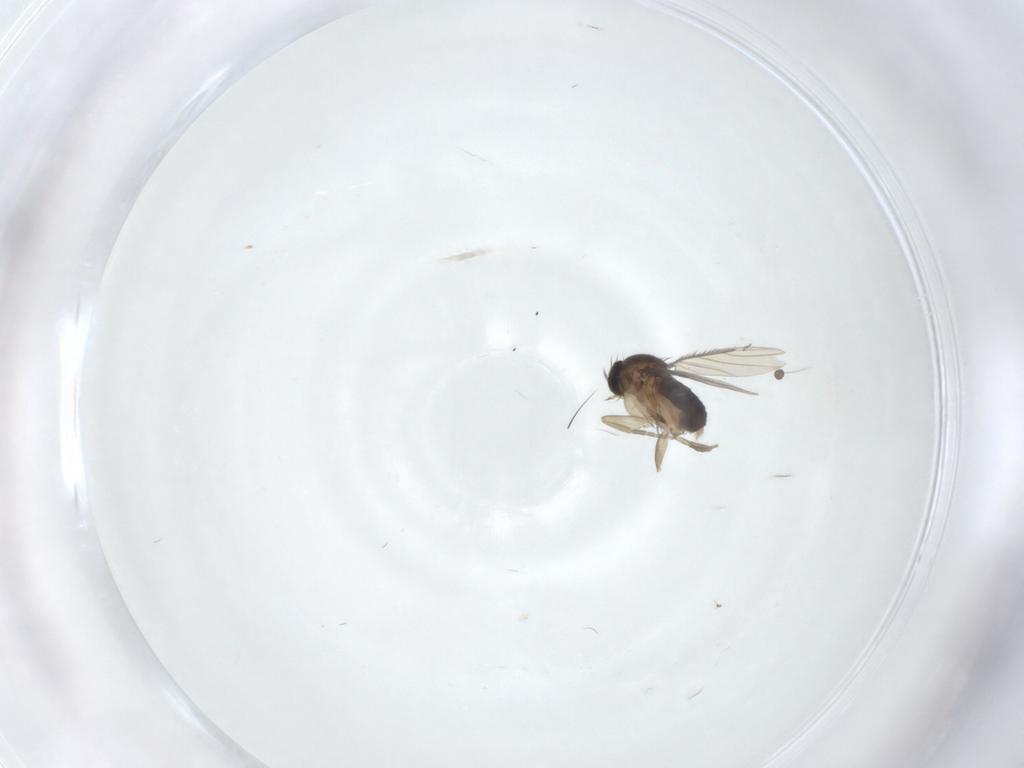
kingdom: Animalia
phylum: Arthropoda
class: Insecta
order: Diptera
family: Phoridae
